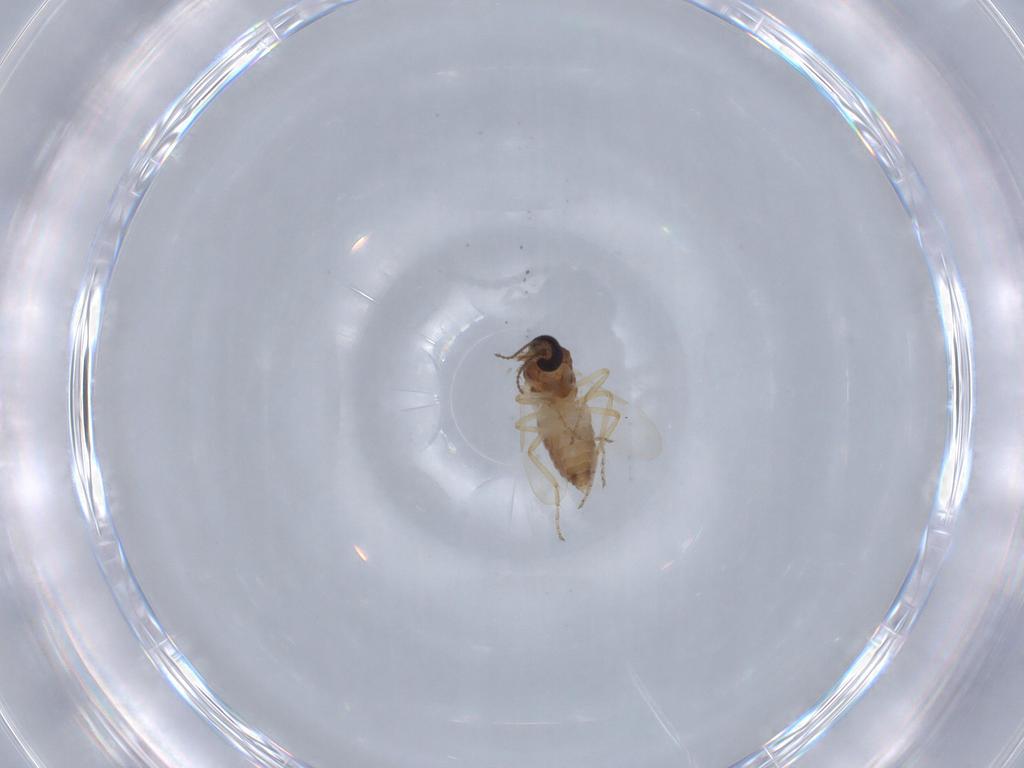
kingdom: Animalia
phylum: Arthropoda
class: Insecta
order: Diptera
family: Ceratopogonidae
